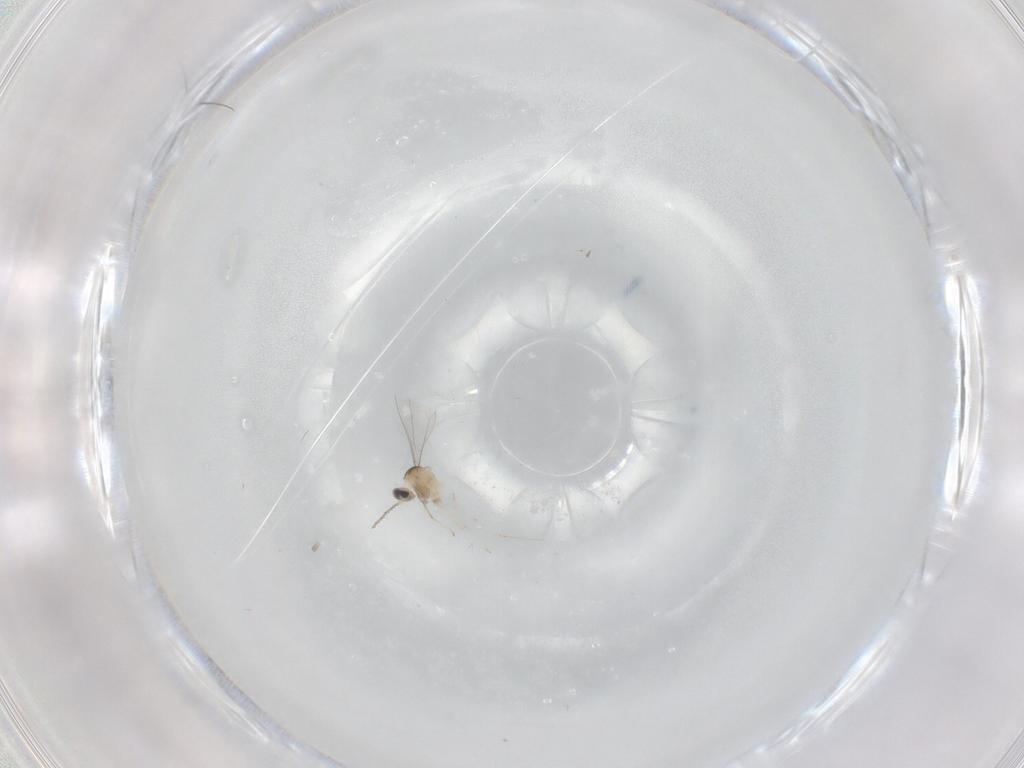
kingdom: Animalia
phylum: Arthropoda
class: Insecta
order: Diptera
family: Cecidomyiidae
